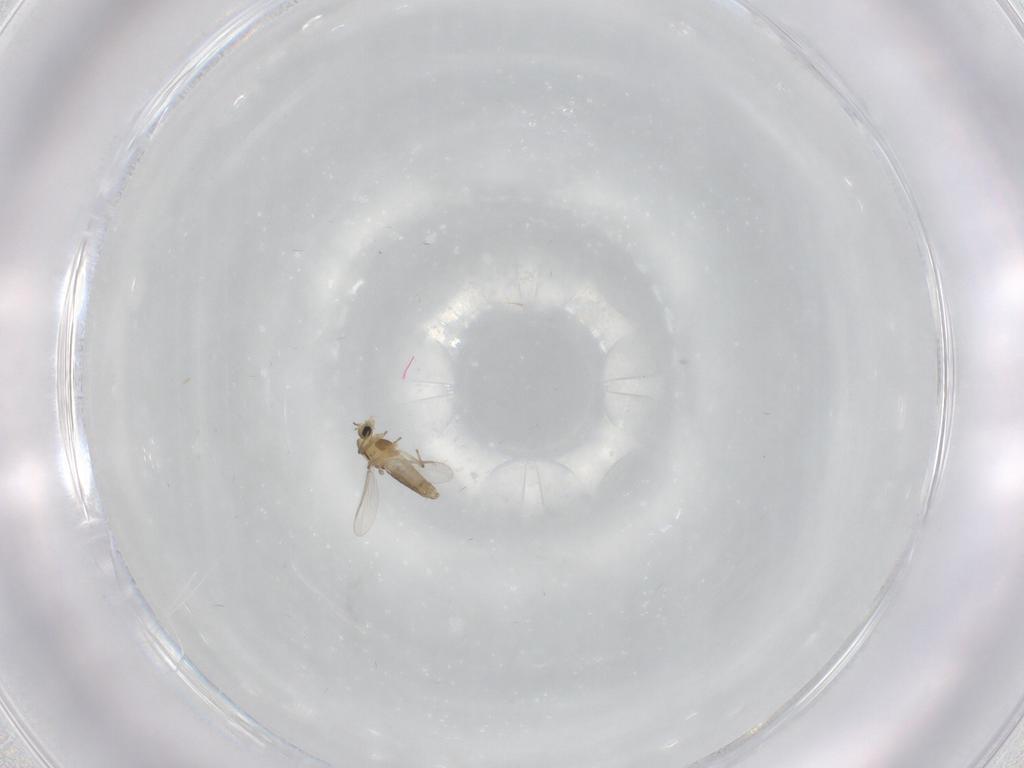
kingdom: Animalia
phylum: Arthropoda
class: Insecta
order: Diptera
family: Chironomidae
